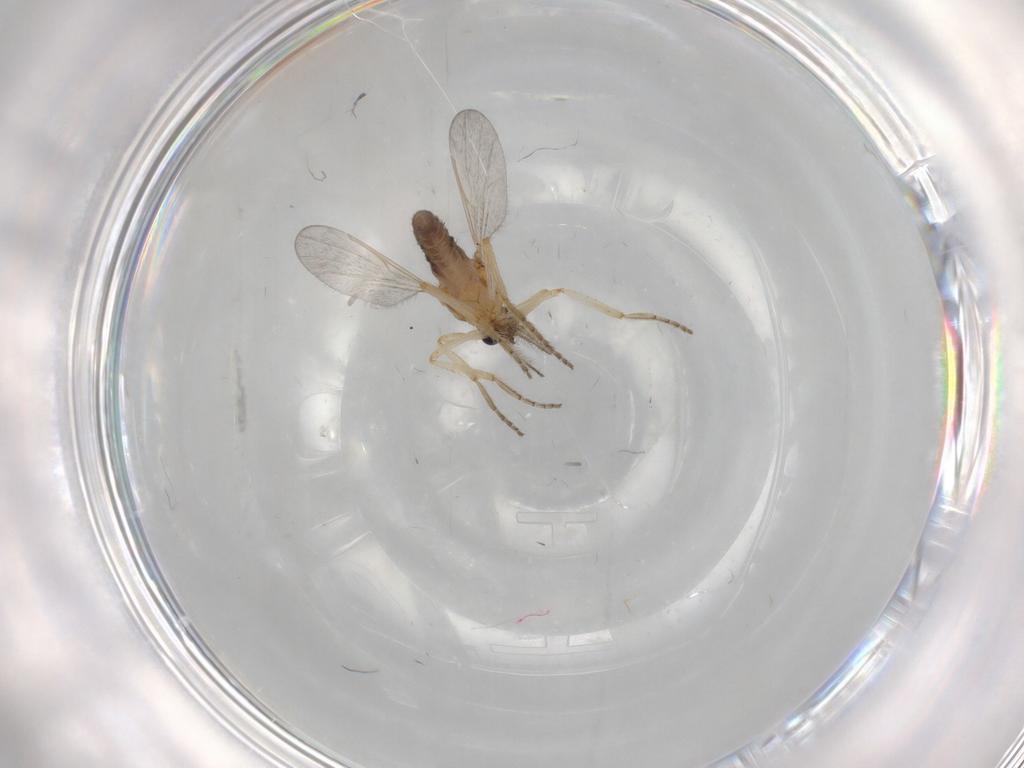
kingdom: Animalia
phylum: Arthropoda
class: Insecta
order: Diptera
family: Ceratopogonidae
